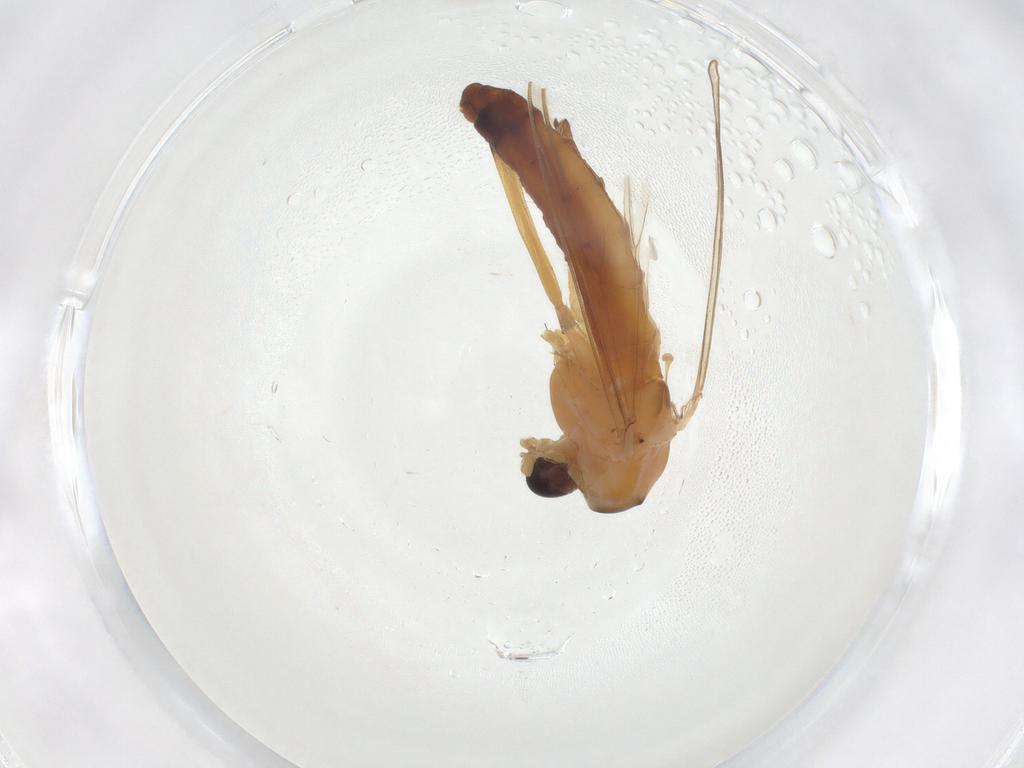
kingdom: Animalia
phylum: Arthropoda
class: Insecta
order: Diptera
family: Chironomidae
